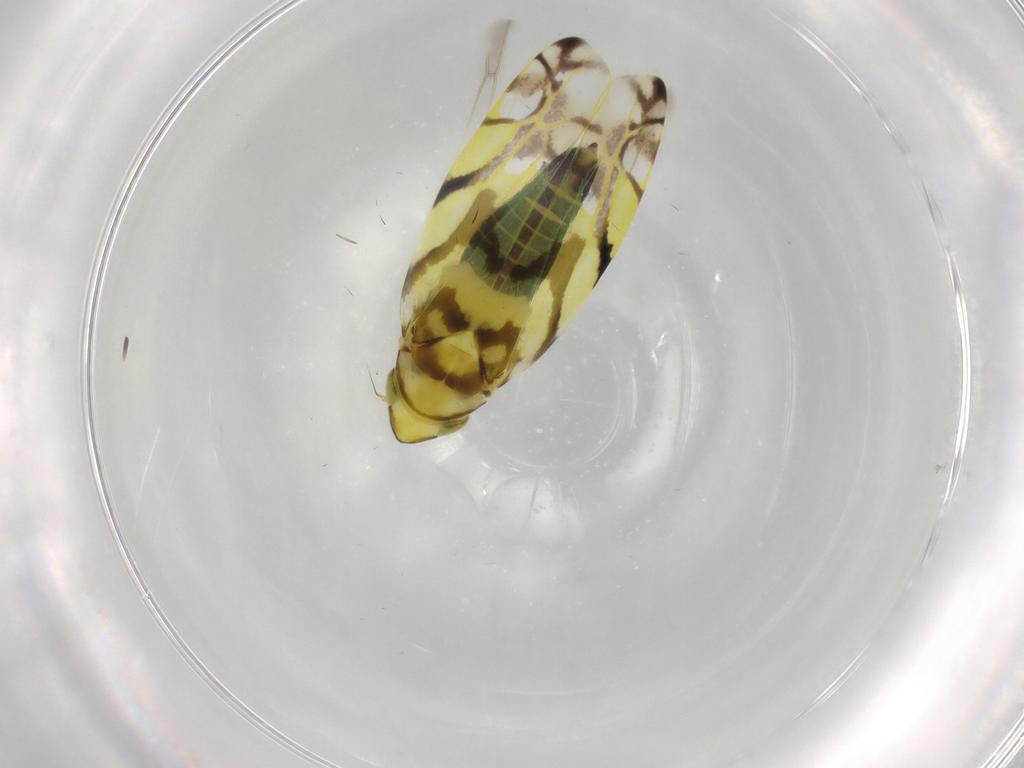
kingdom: Animalia
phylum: Arthropoda
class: Insecta
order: Hemiptera
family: Cicadellidae
